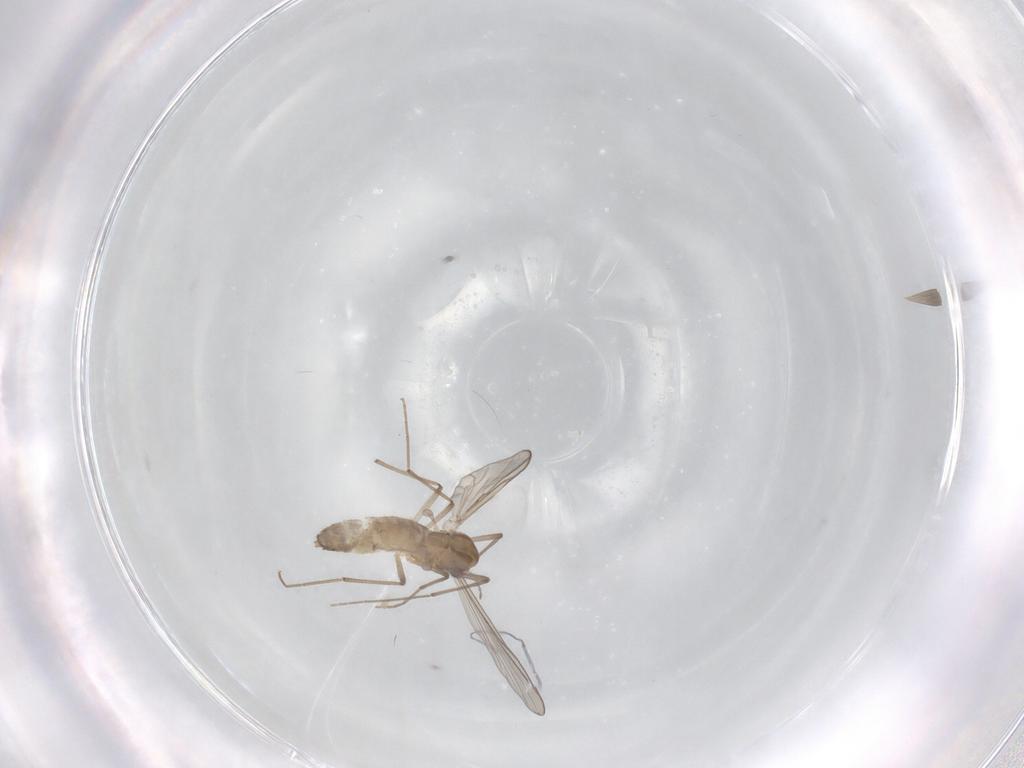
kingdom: Animalia
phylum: Arthropoda
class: Insecta
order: Diptera
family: Chironomidae
